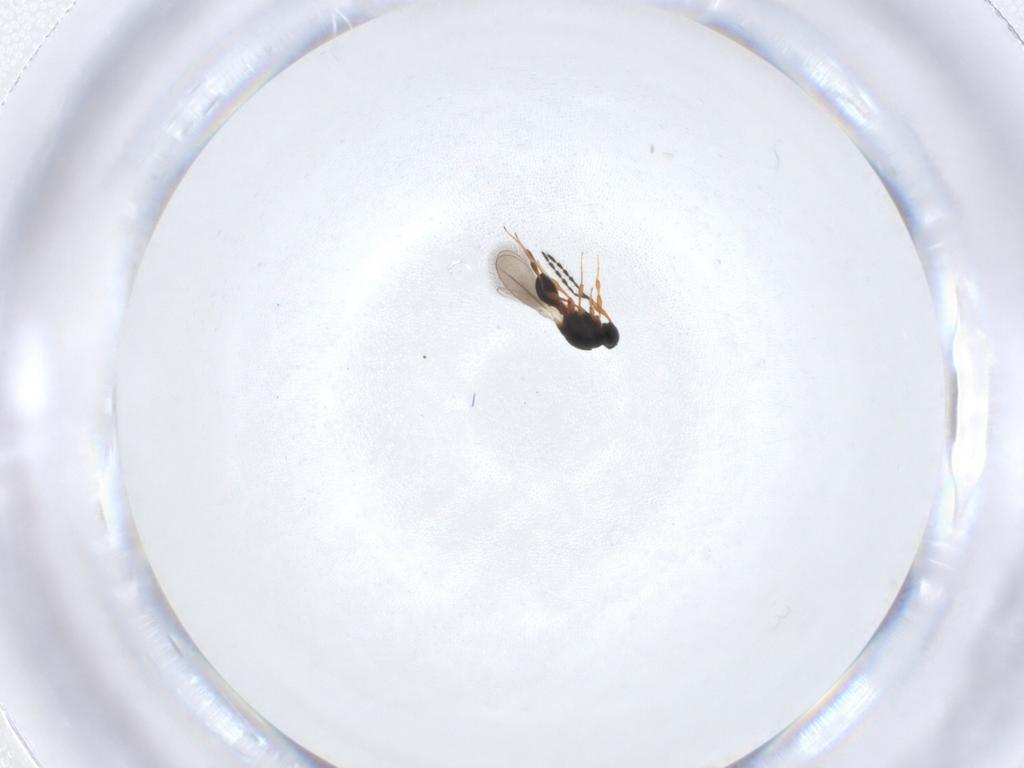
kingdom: Animalia
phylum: Arthropoda
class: Insecta
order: Hymenoptera
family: Platygastridae
